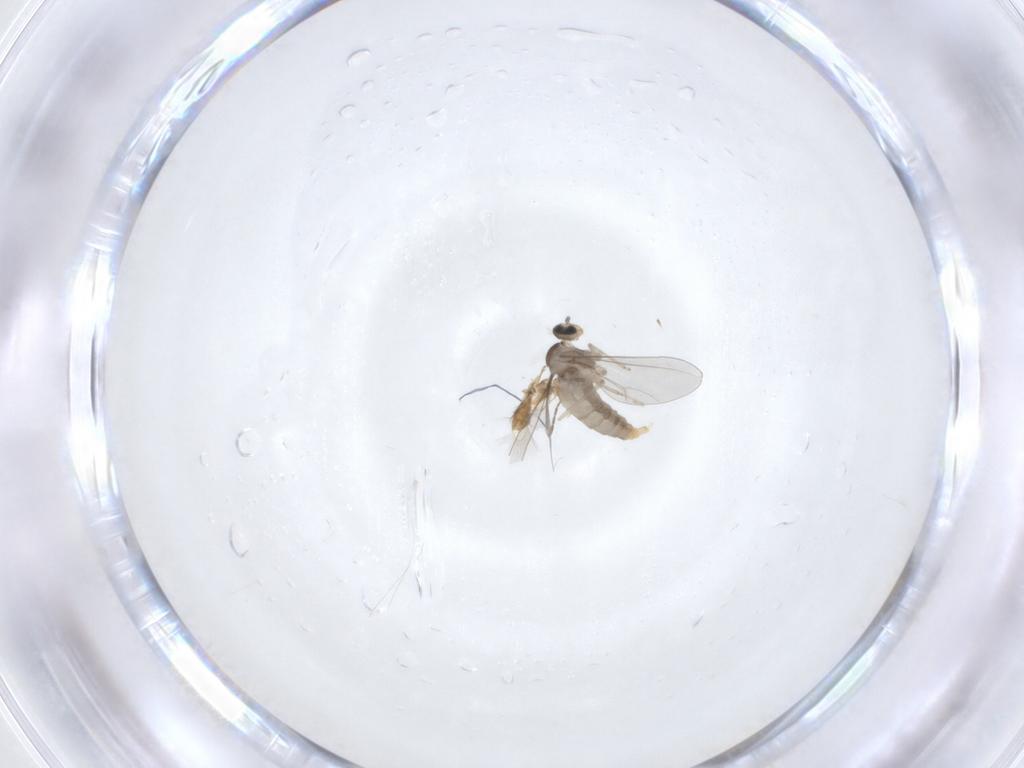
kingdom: Animalia
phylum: Arthropoda
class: Insecta
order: Diptera
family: Cecidomyiidae
